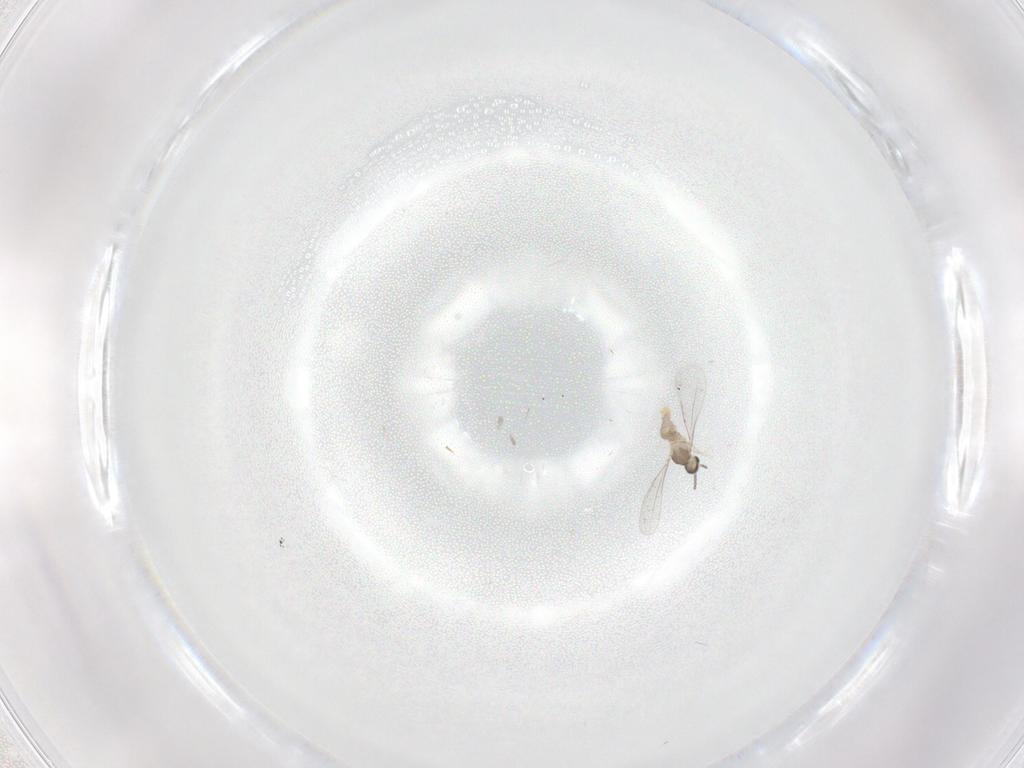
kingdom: Animalia
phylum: Arthropoda
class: Insecta
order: Diptera
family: Cecidomyiidae
